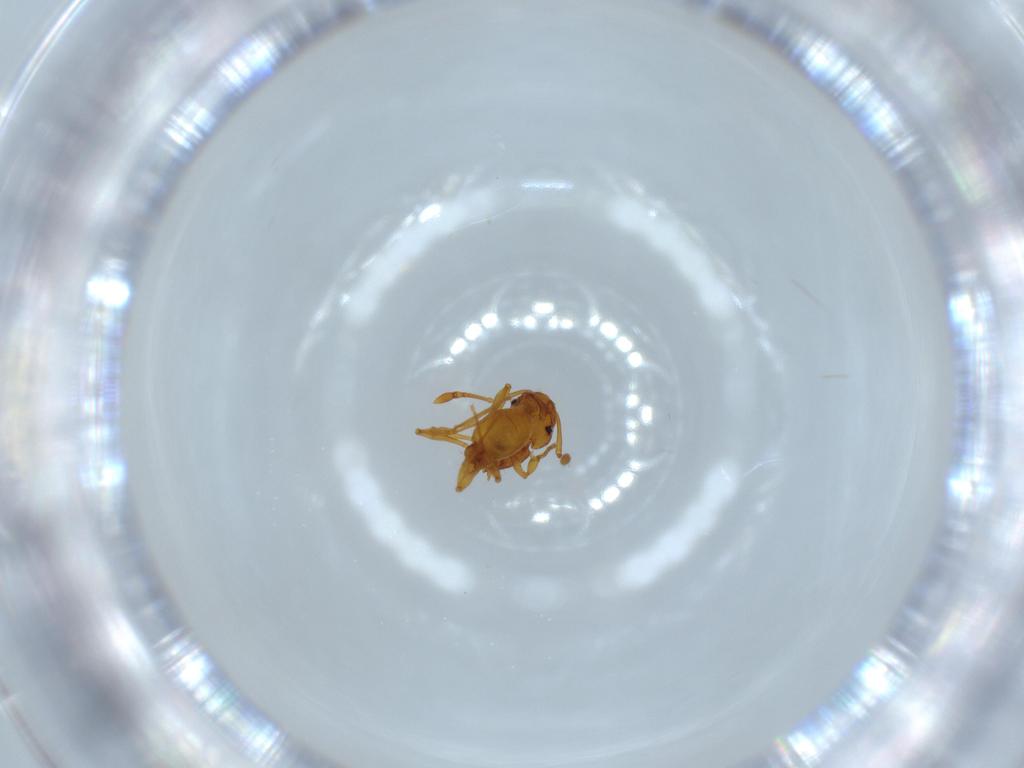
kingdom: Animalia
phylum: Arthropoda
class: Insecta
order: Hymenoptera
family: Formicidae
